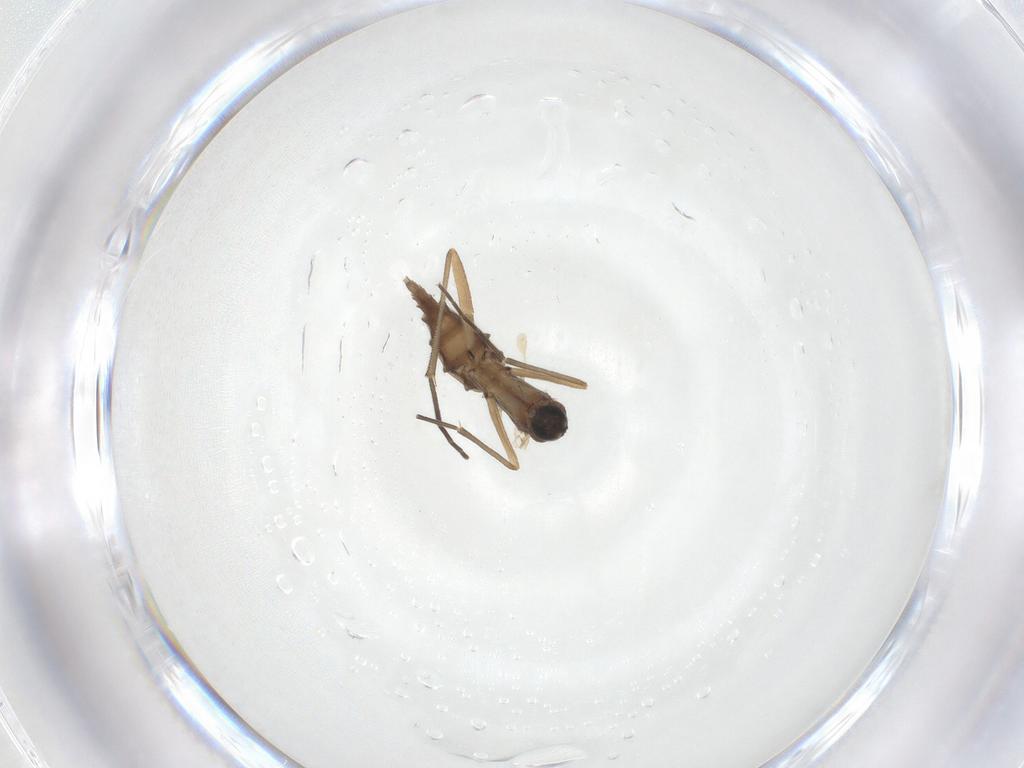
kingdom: Animalia
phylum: Arthropoda
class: Insecta
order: Diptera
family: Sciaridae
